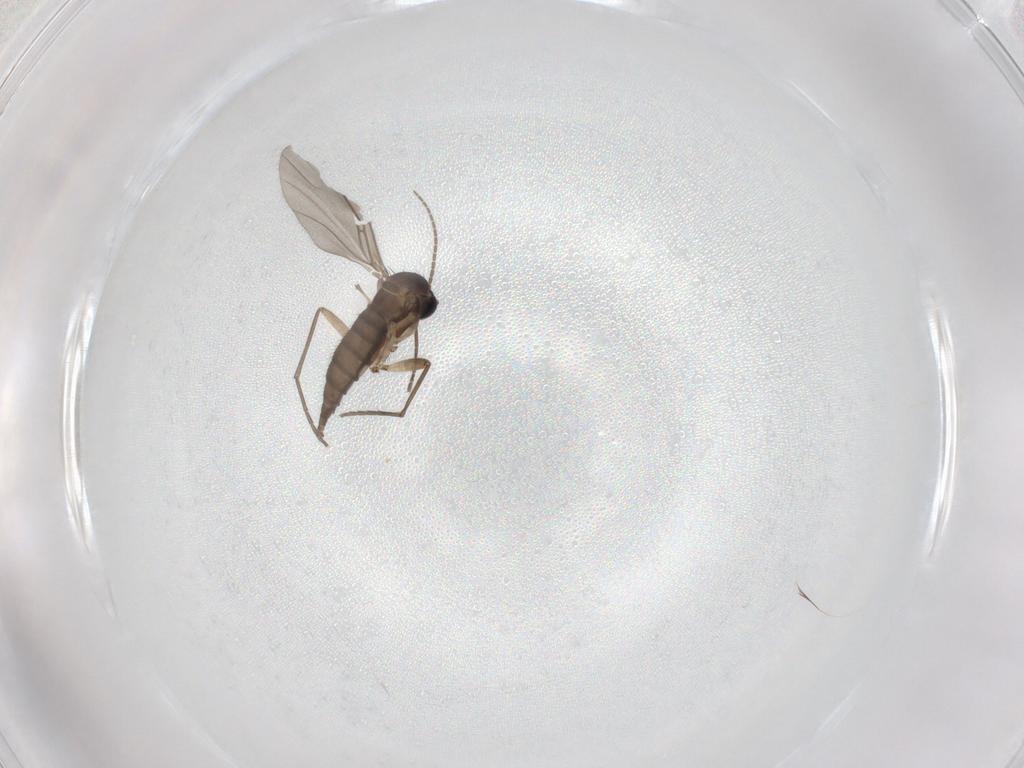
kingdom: Animalia
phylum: Arthropoda
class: Insecta
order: Diptera
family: Sciaridae
